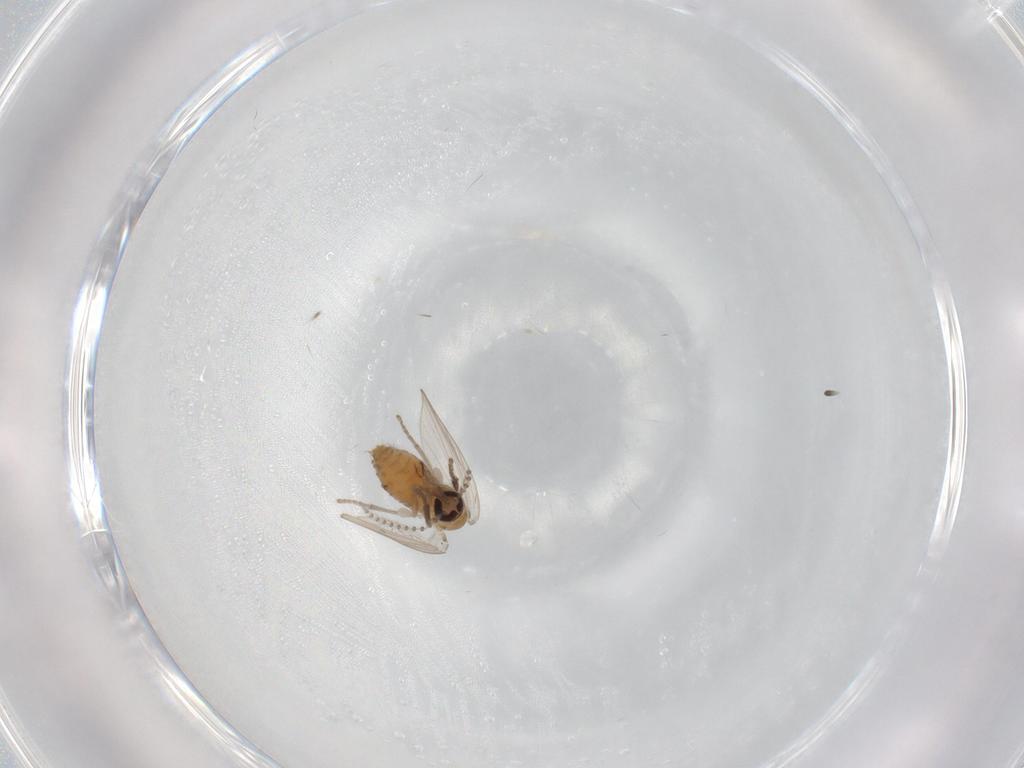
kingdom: Animalia
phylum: Arthropoda
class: Insecta
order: Diptera
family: Psychodidae
